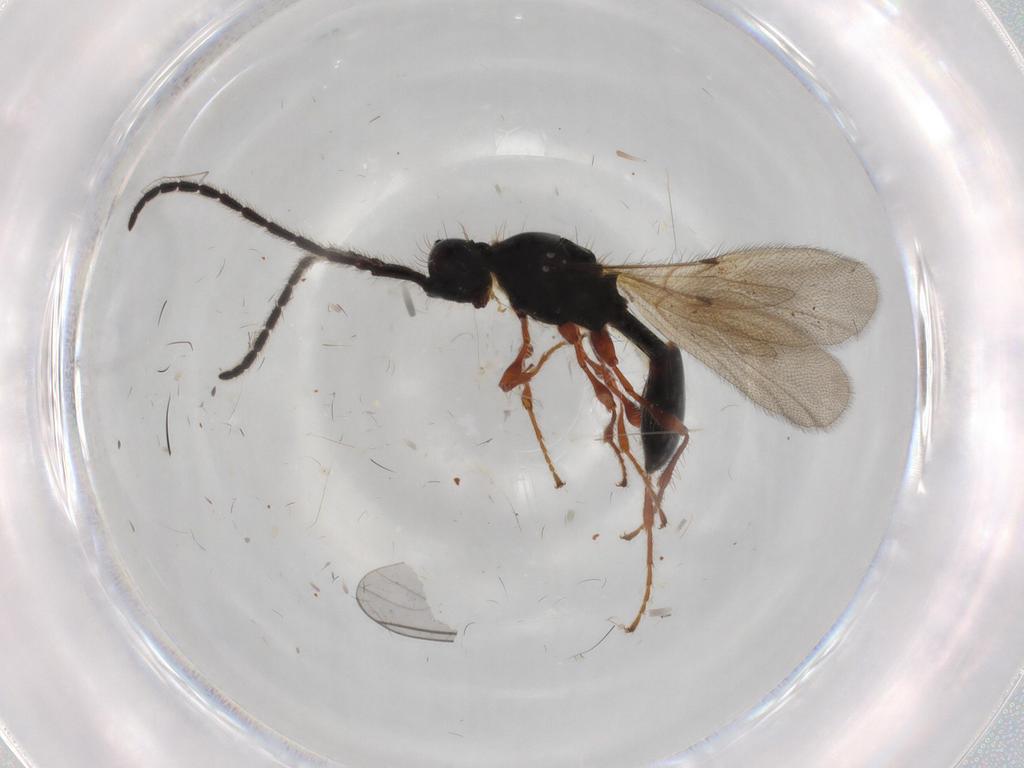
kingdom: Animalia
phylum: Arthropoda
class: Insecta
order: Hymenoptera
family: Diapriidae
